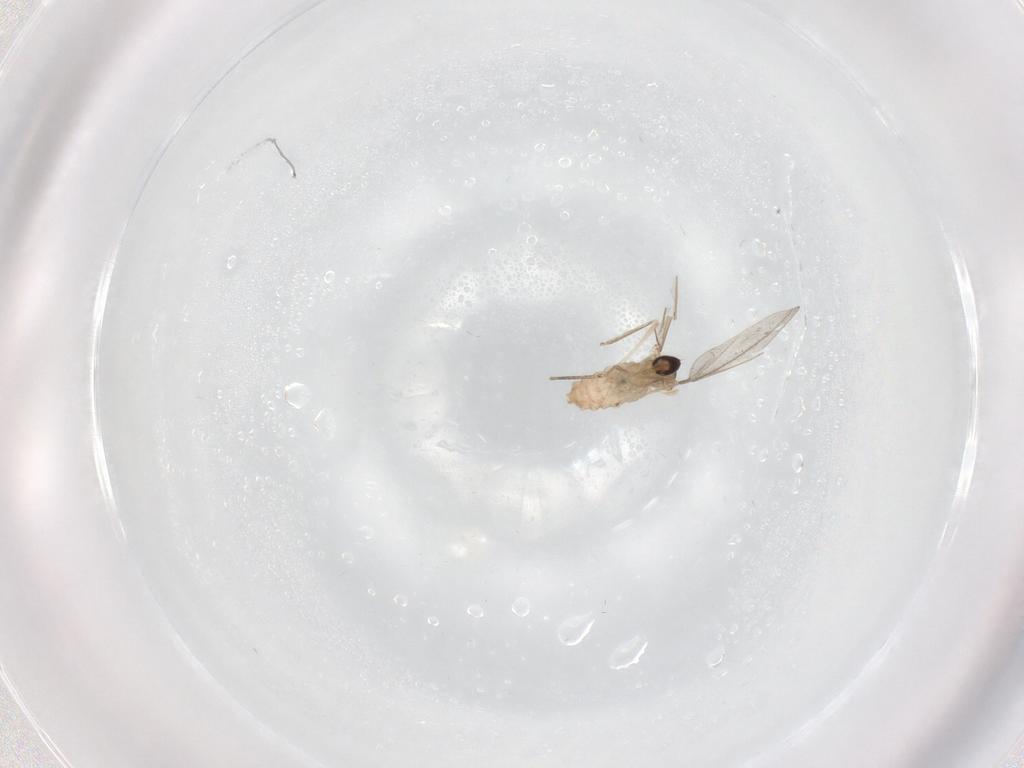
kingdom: Animalia
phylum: Arthropoda
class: Insecta
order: Diptera
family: Cecidomyiidae
